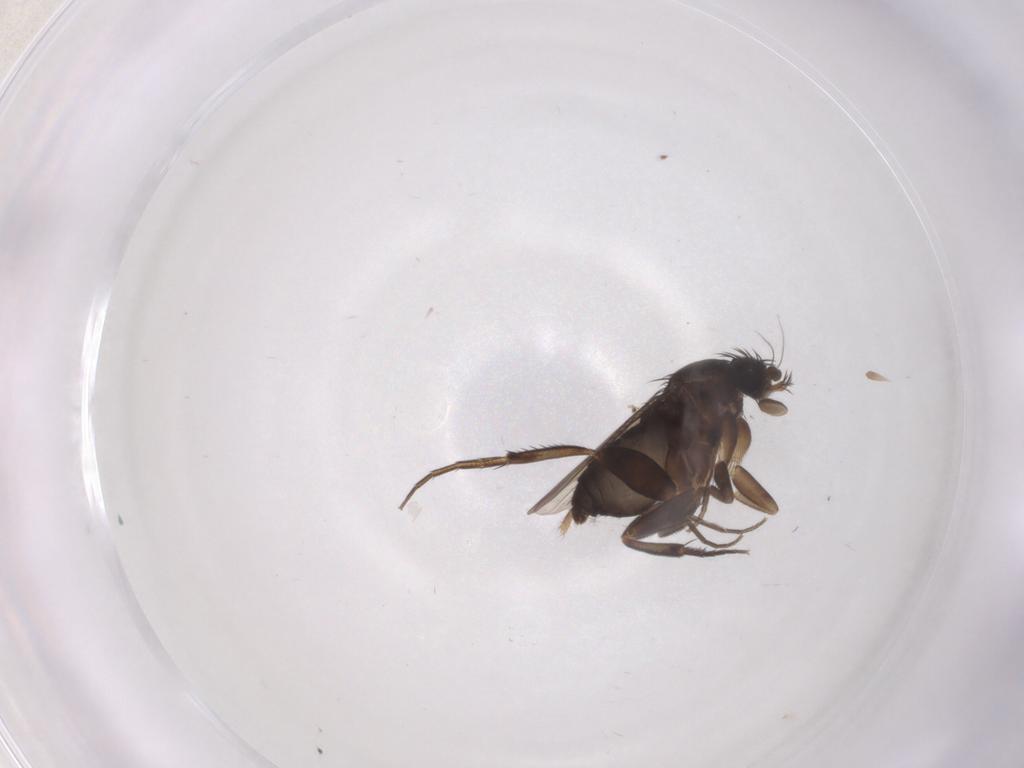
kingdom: Animalia
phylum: Arthropoda
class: Insecta
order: Diptera
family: Phoridae
